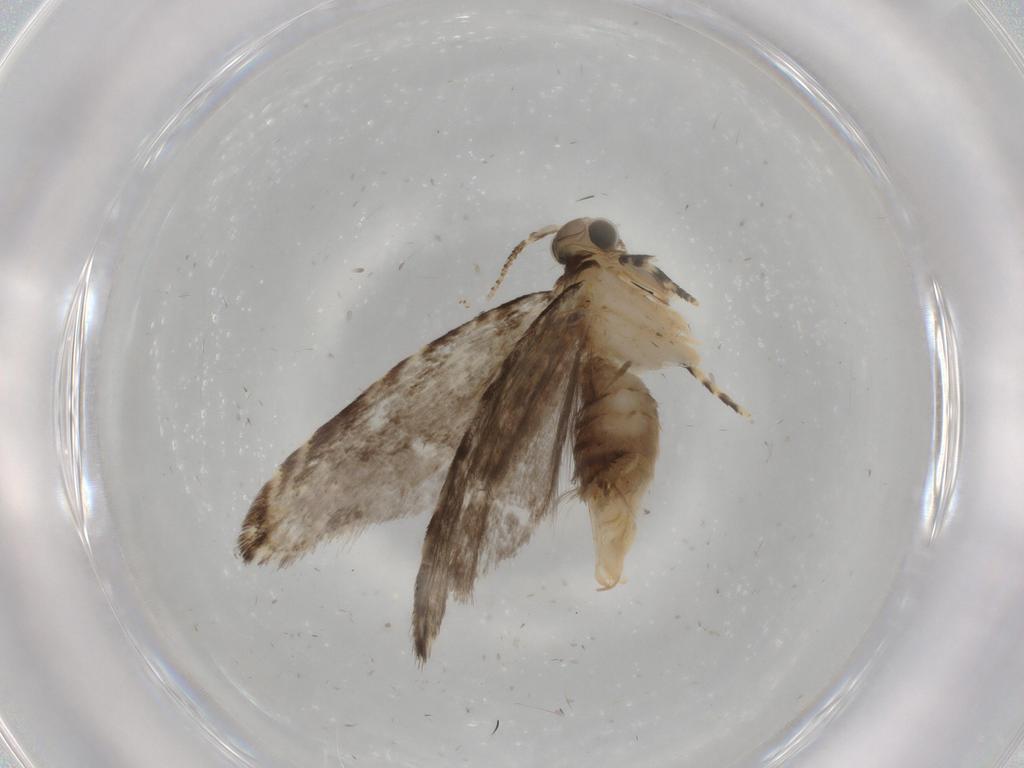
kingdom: Animalia
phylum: Arthropoda
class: Insecta
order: Lepidoptera
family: Tineidae
